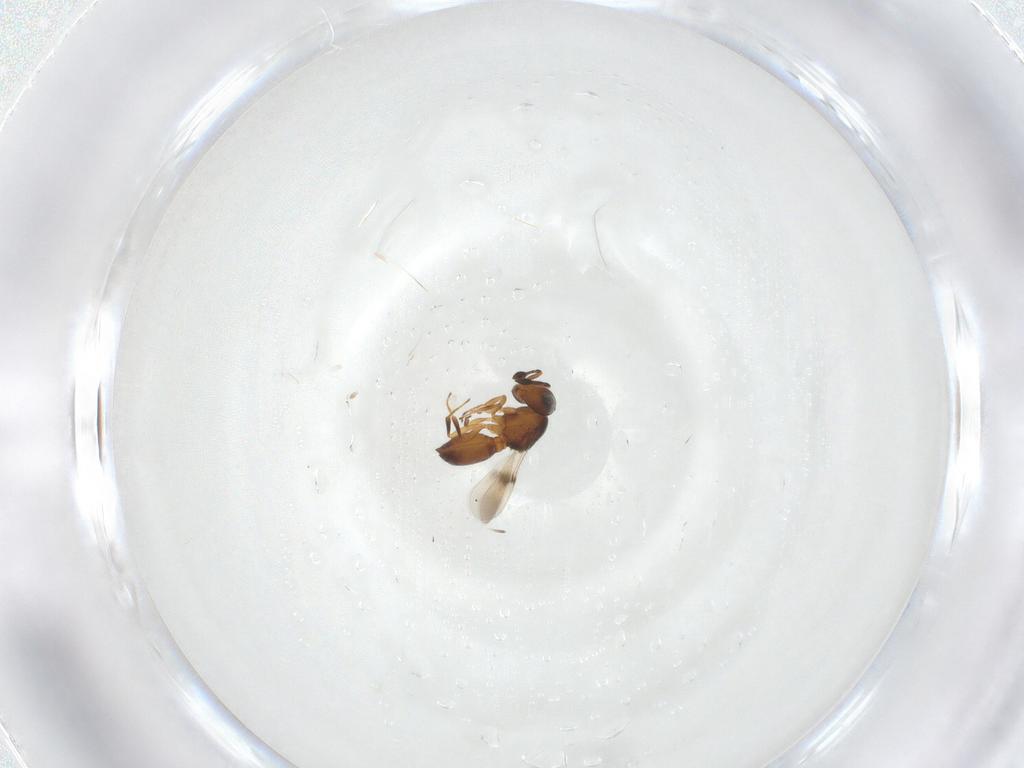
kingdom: Animalia
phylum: Arthropoda
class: Insecta
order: Hymenoptera
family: Scelionidae
